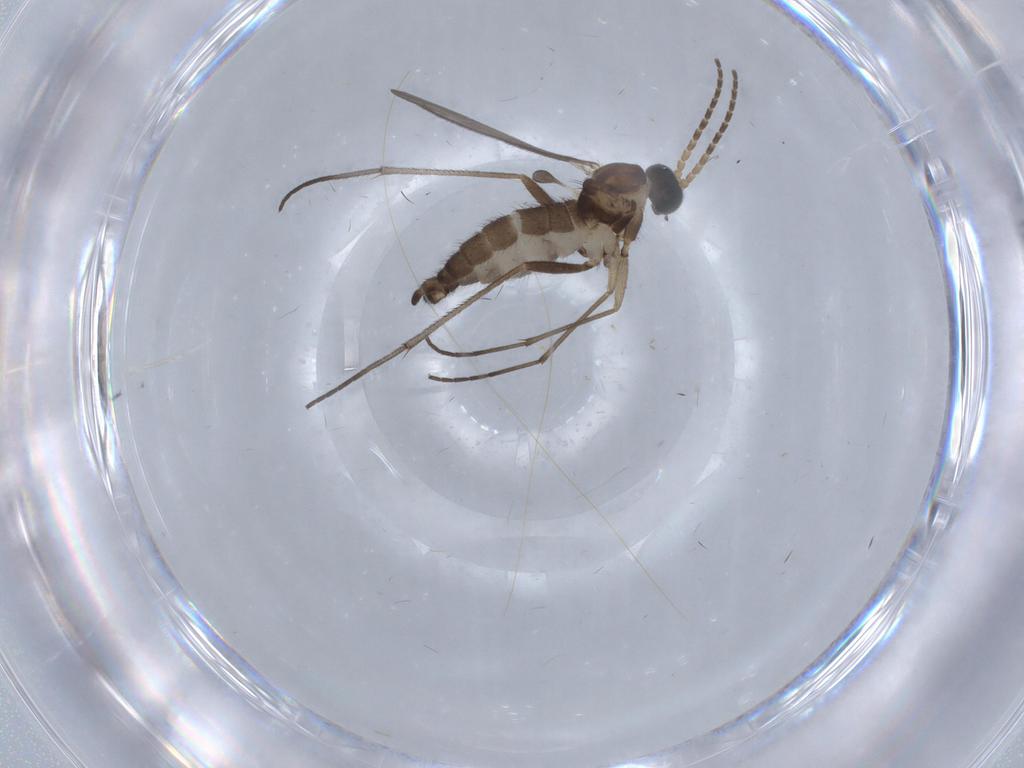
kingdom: Animalia
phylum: Arthropoda
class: Insecta
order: Diptera
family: Sciaridae
